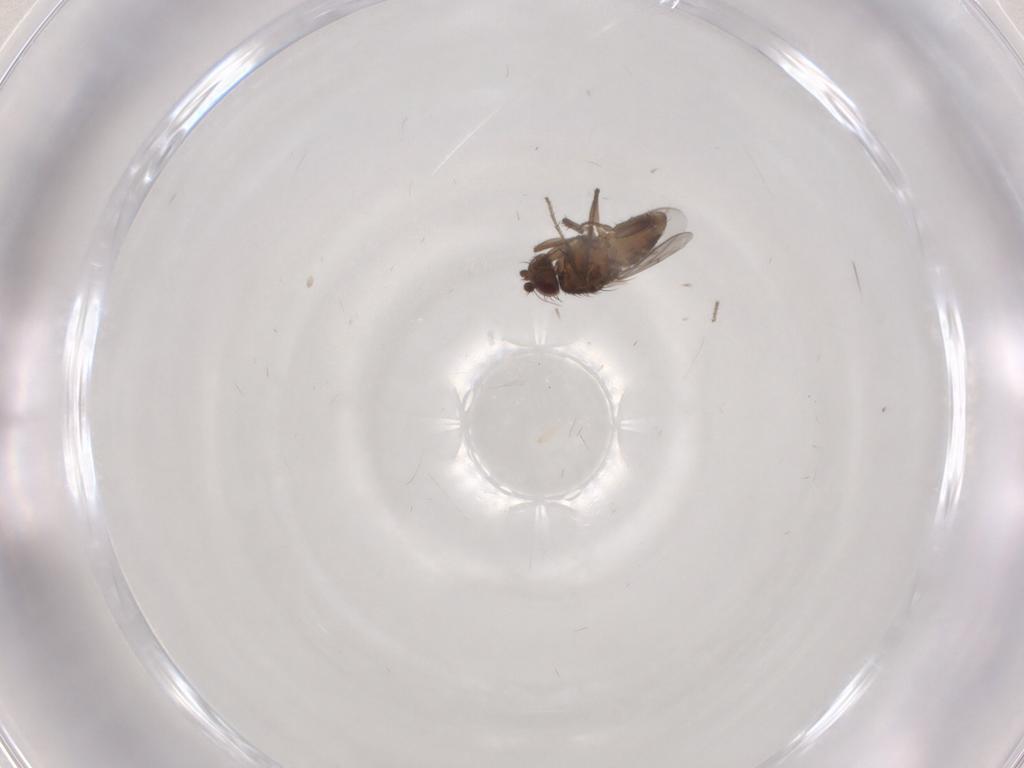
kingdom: Animalia
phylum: Arthropoda
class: Insecta
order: Diptera
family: Sphaeroceridae
